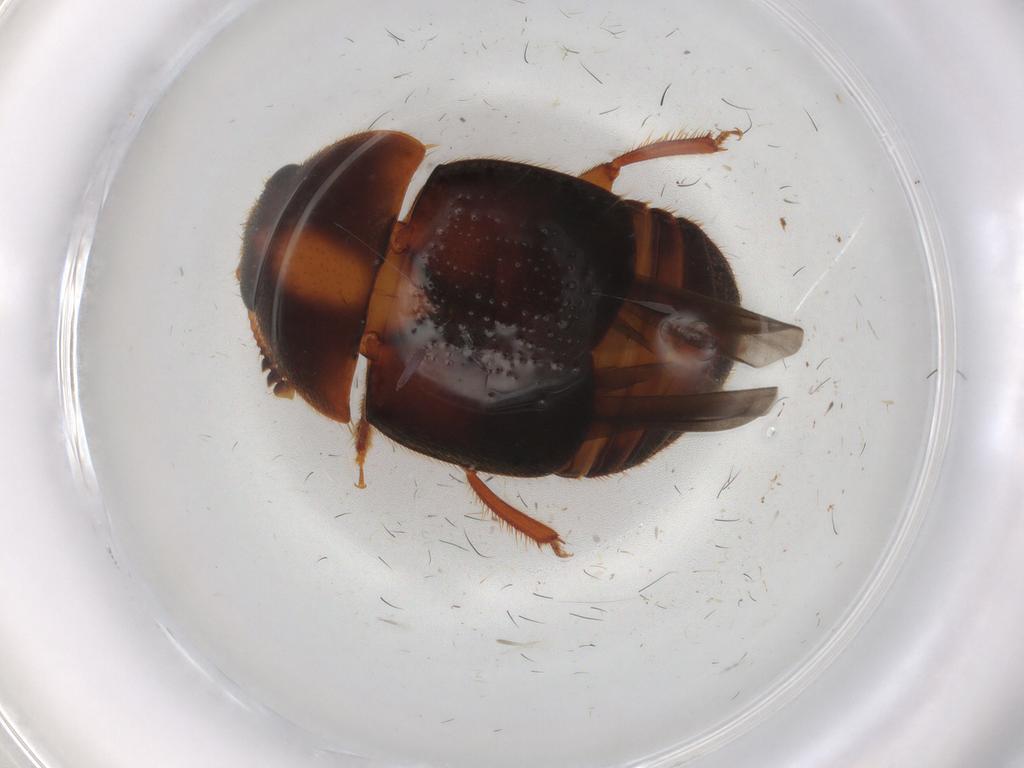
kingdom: Animalia
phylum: Arthropoda
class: Insecta
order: Coleoptera
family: Nitidulidae
